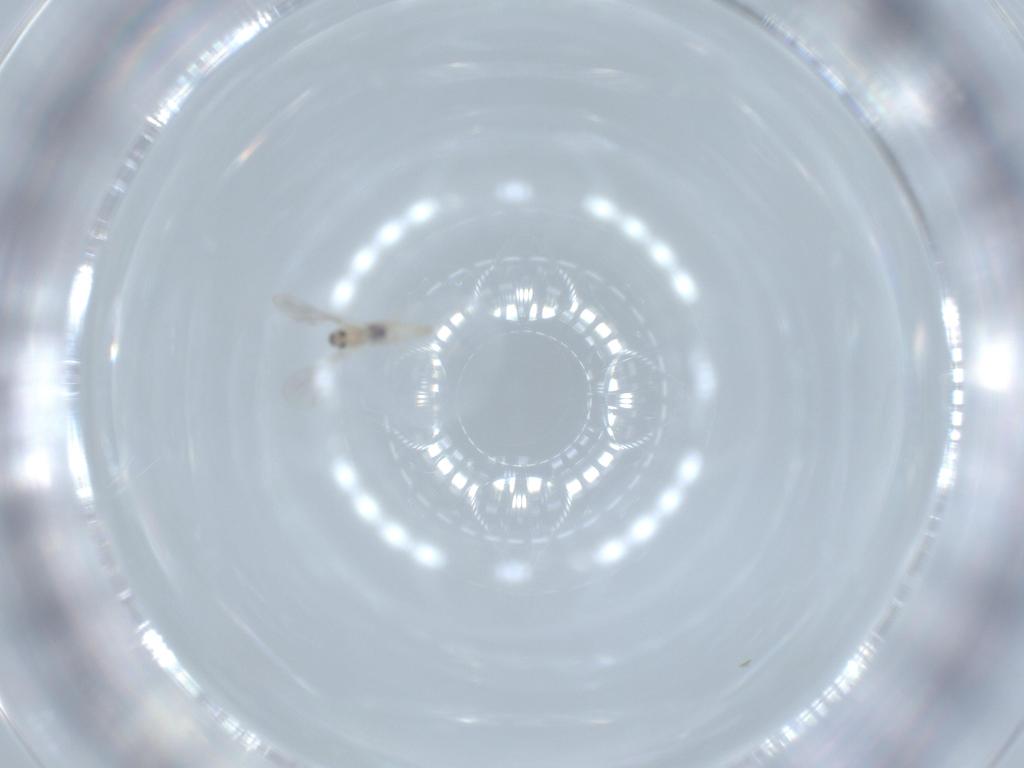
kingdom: Animalia
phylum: Arthropoda
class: Insecta
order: Diptera
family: Cecidomyiidae
